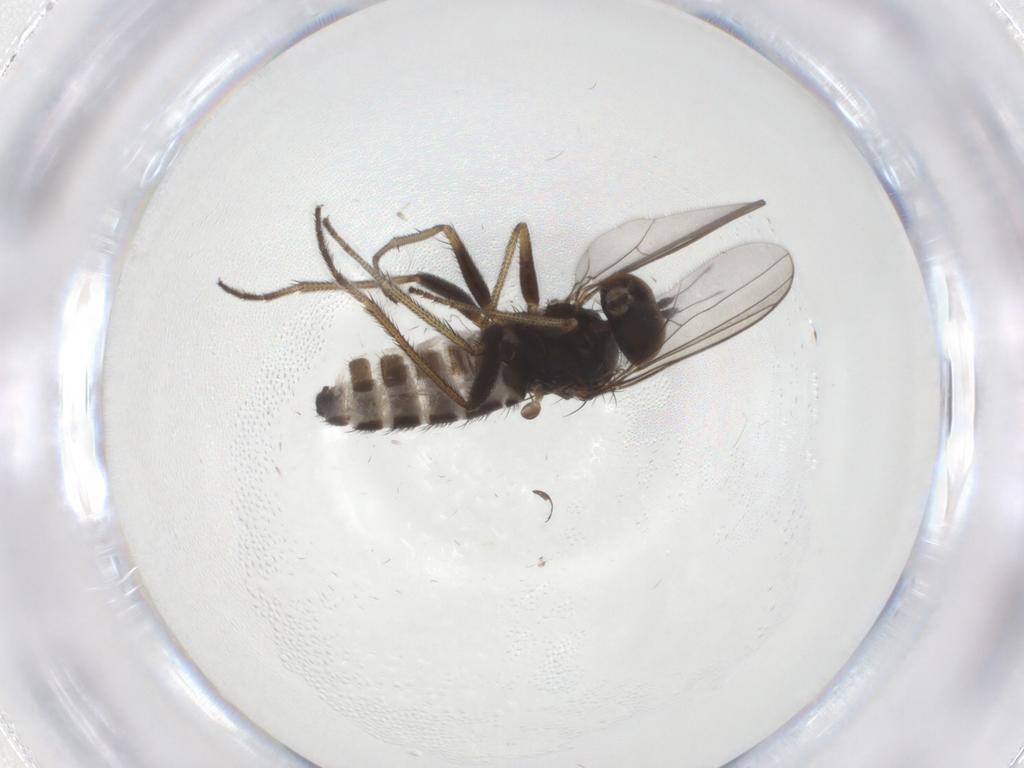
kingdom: Animalia
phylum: Arthropoda
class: Insecta
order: Diptera
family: Dolichopodidae
